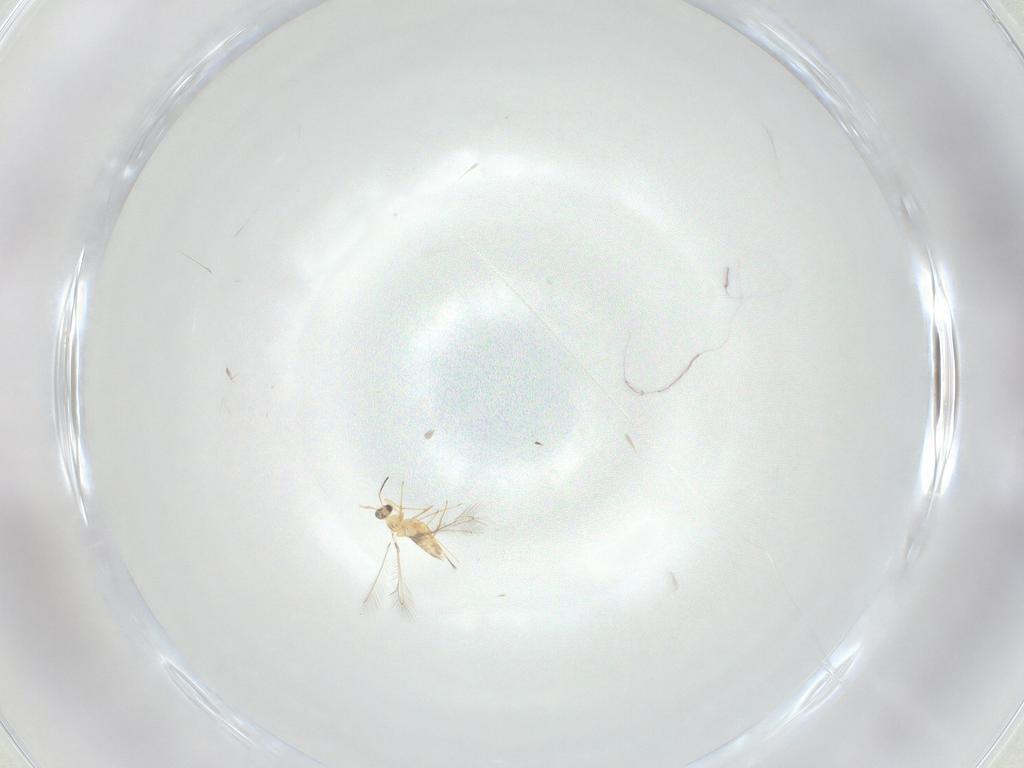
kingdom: Animalia
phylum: Arthropoda
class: Insecta
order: Hymenoptera
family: Mymaridae
